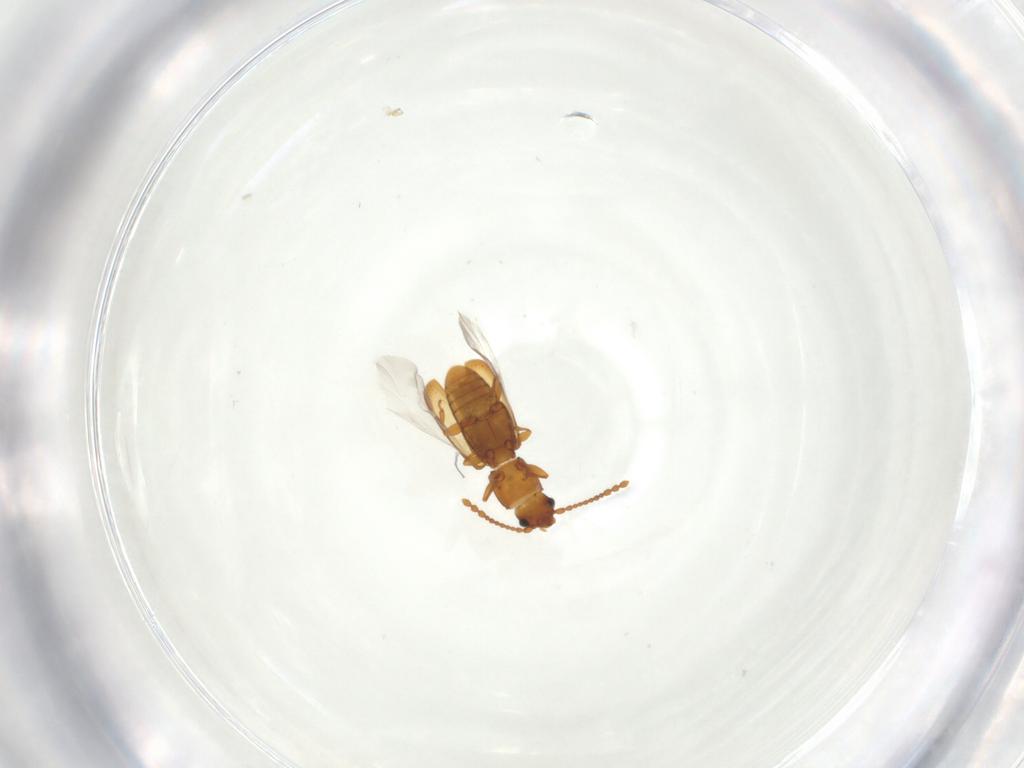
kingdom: Animalia
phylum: Arthropoda
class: Insecta
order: Coleoptera
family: Laemophloeidae
